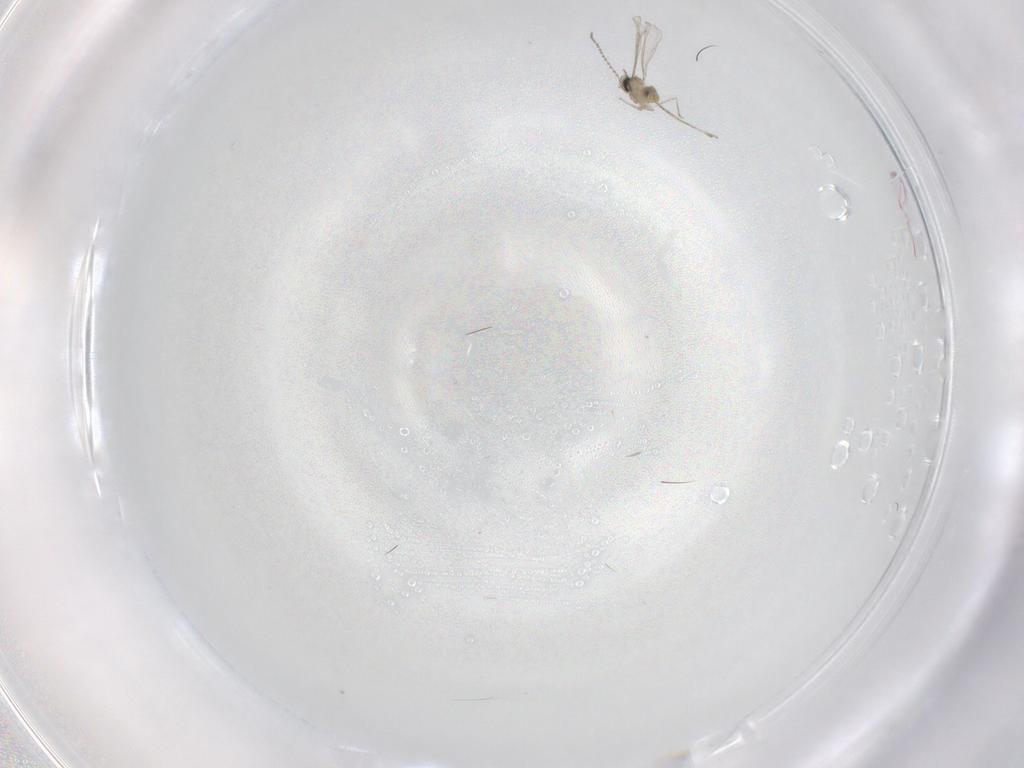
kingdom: Animalia
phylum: Arthropoda
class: Insecta
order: Diptera
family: Phoridae
